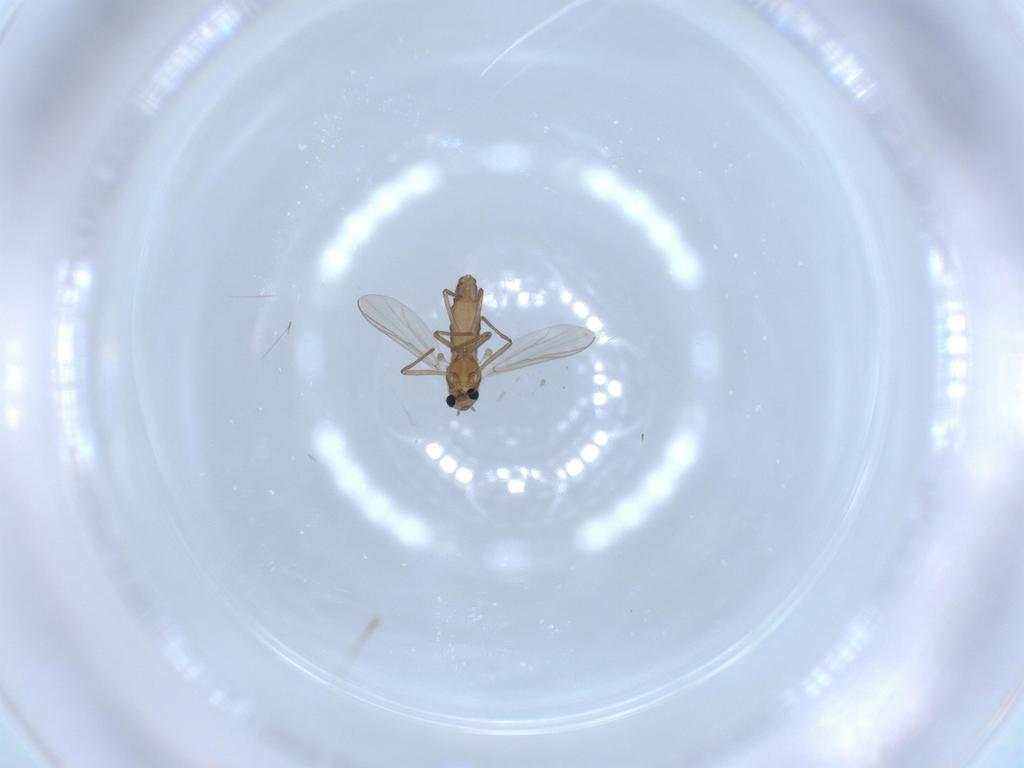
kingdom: Animalia
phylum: Arthropoda
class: Insecta
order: Diptera
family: Chironomidae
